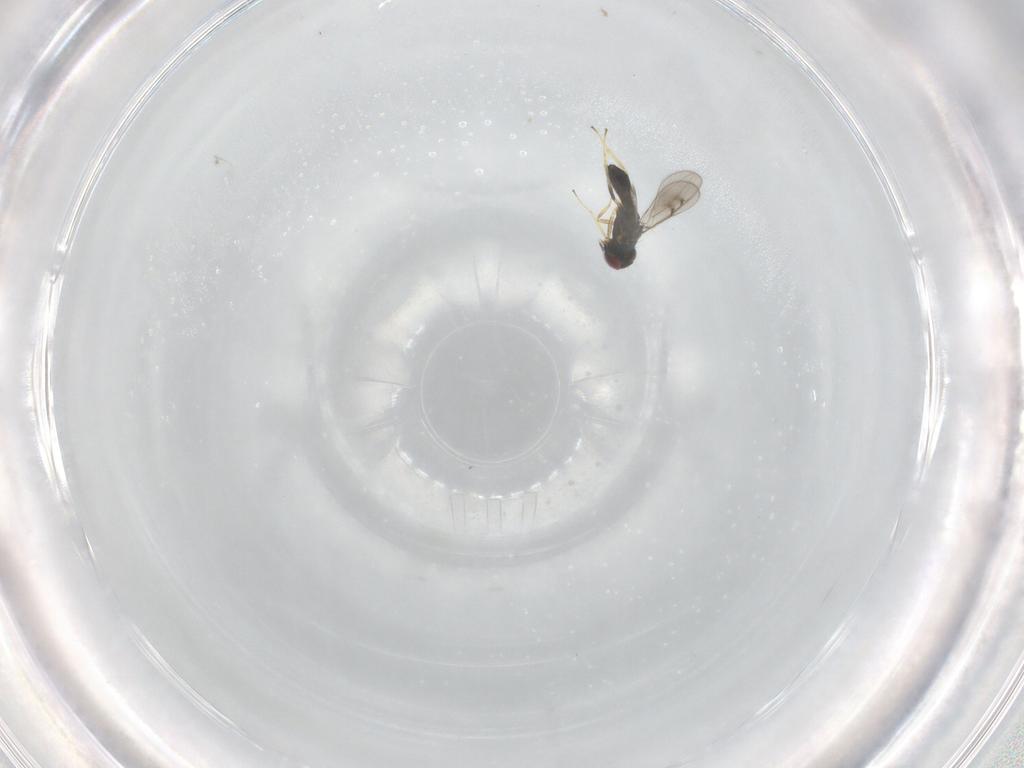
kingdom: Animalia
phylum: Arthropoda
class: Insecta
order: Hymenoptera
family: Eulophidae
